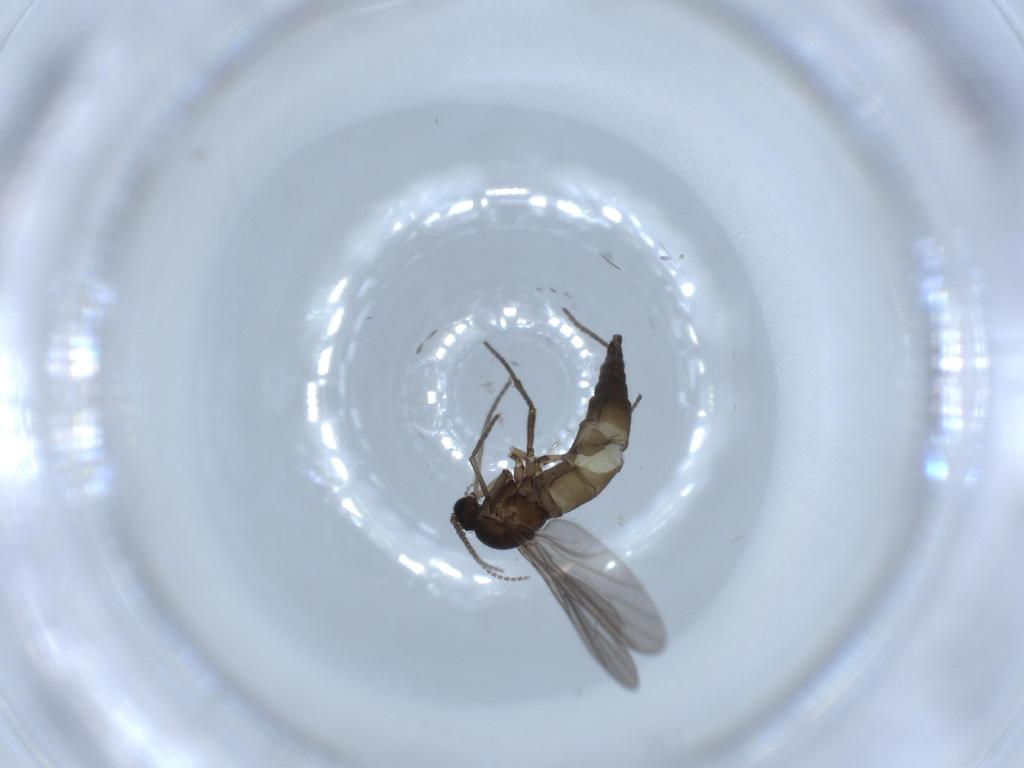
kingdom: Animalia
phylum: Arthropoda
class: Insecta
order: Diptera
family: Sciaridae
